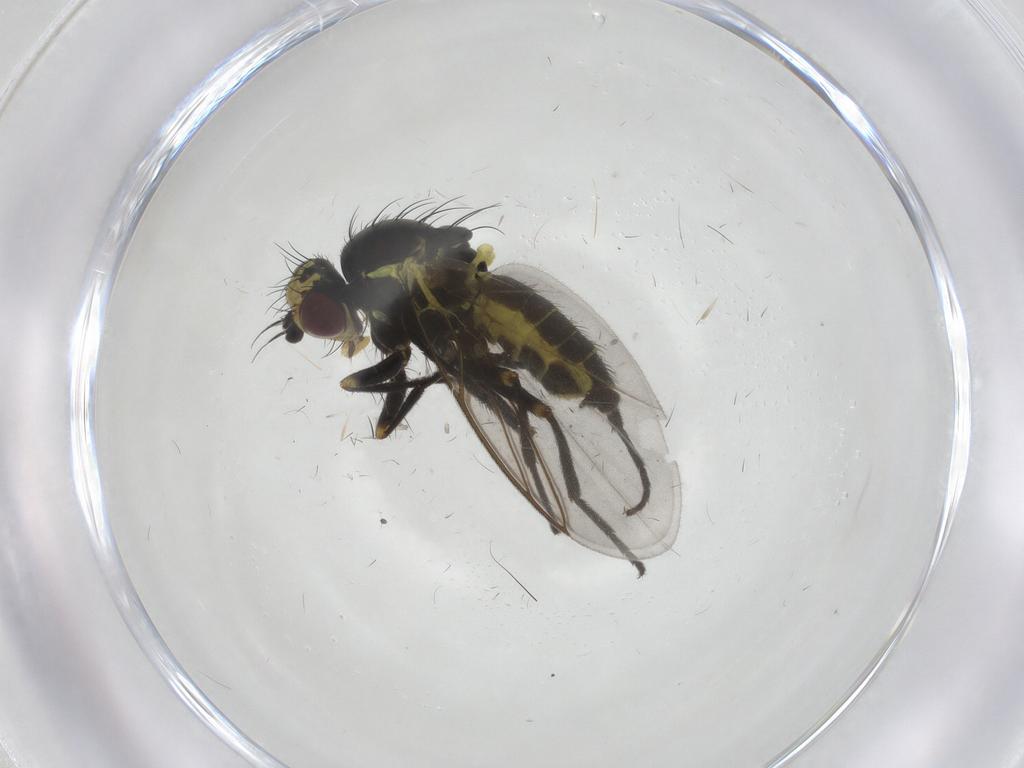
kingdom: Animalia
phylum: Arthropoda
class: Insecta
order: Diptera
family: Agromyzidae
